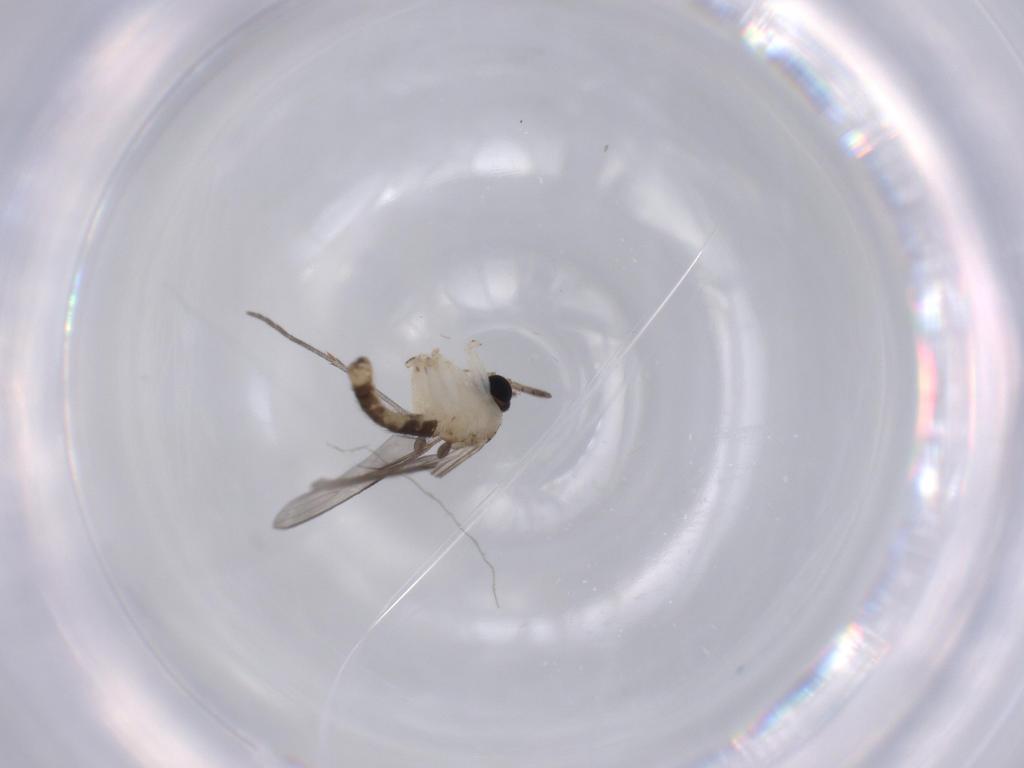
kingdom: Animalia
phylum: Arthropoda
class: Insecta
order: Diptera
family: Sciaridae
